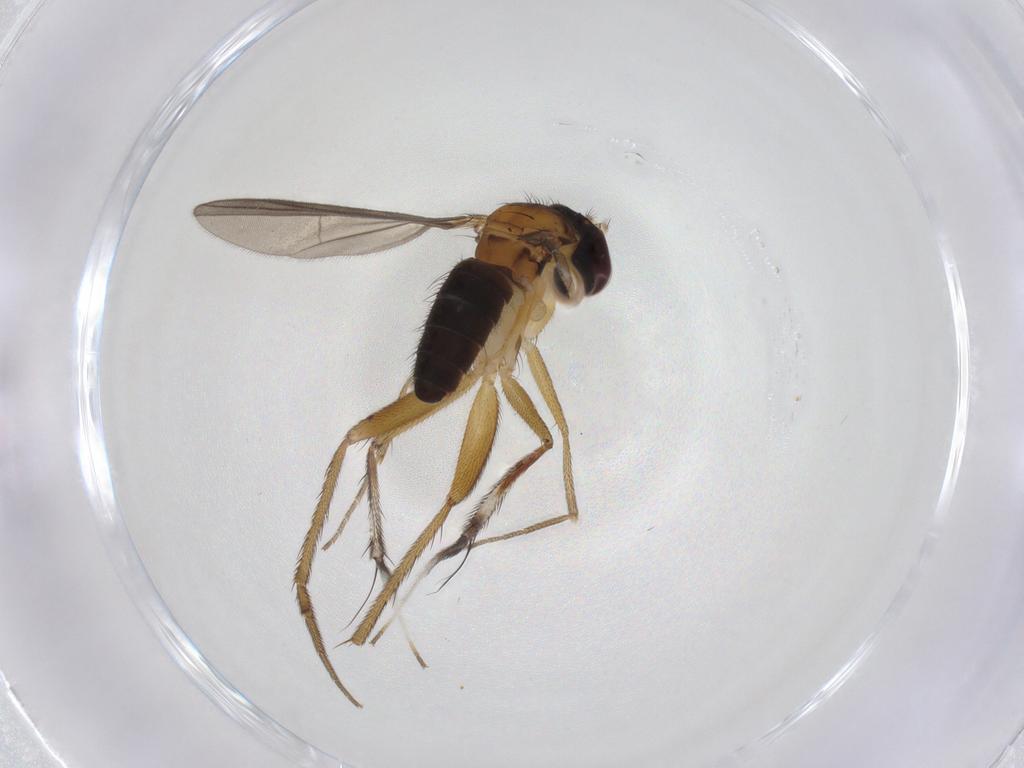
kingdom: Animalia
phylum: Arthropoda
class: Insecta
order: Diptera
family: Dolichopodidae
